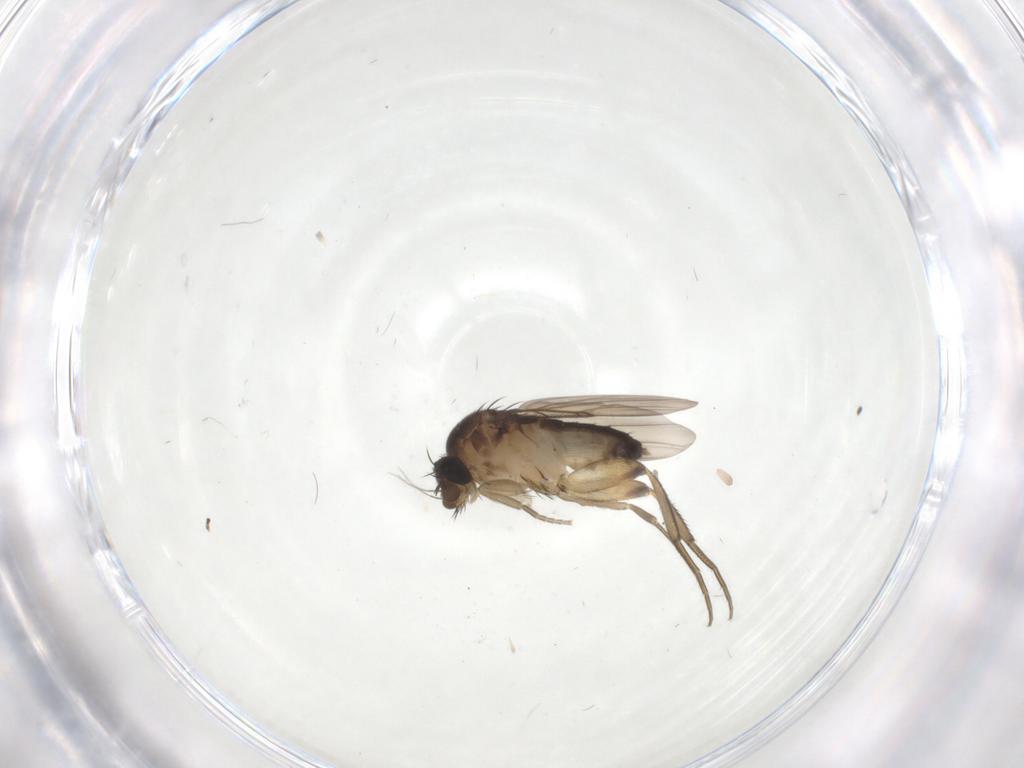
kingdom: Animalia
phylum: Arthropoda
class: Insecta
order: Diptera
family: Phoridae
